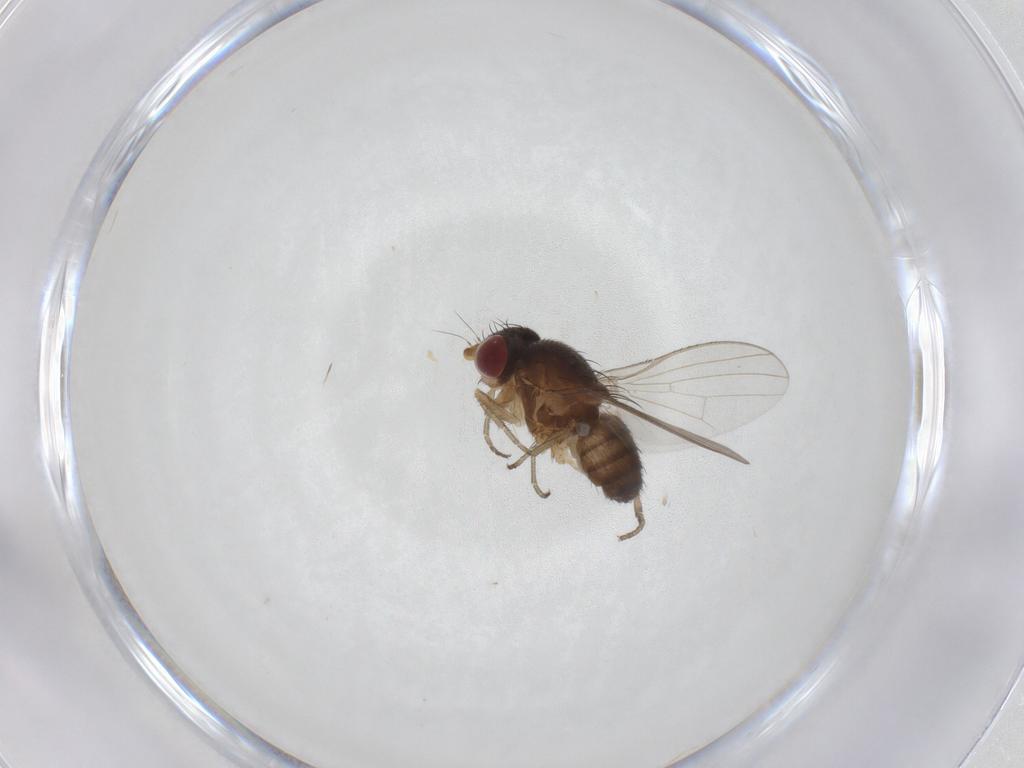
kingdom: Animalia
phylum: Arthropoda
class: Insecta
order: Diptera
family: Heleomyzidae
